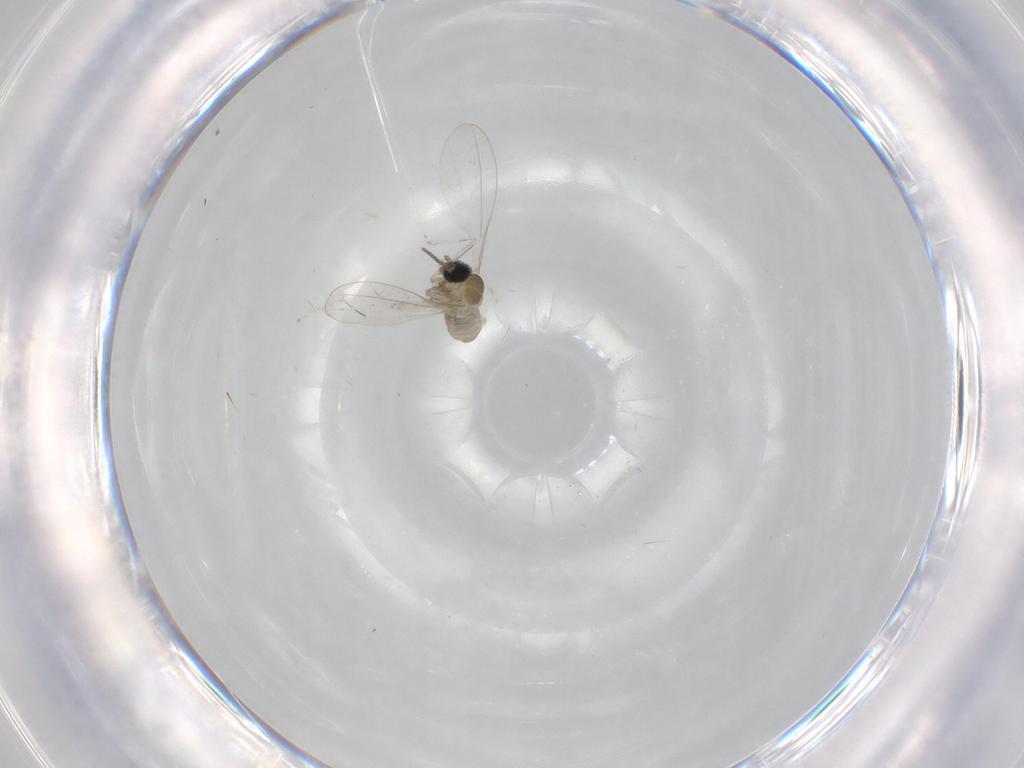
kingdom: Animalia
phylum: Arthropoda
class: Insecta
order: Diptera
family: Cecidomyiidae
